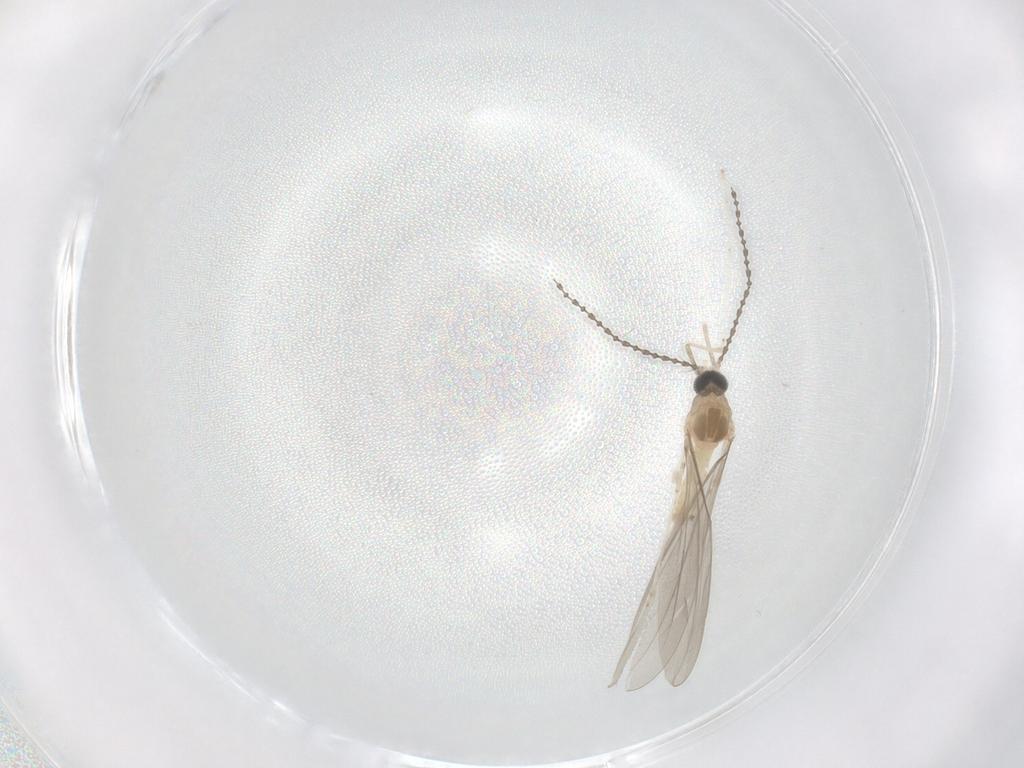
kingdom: Animalia
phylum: Arthropoda
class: Insecta
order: Diptera
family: Cecidomyiidae
